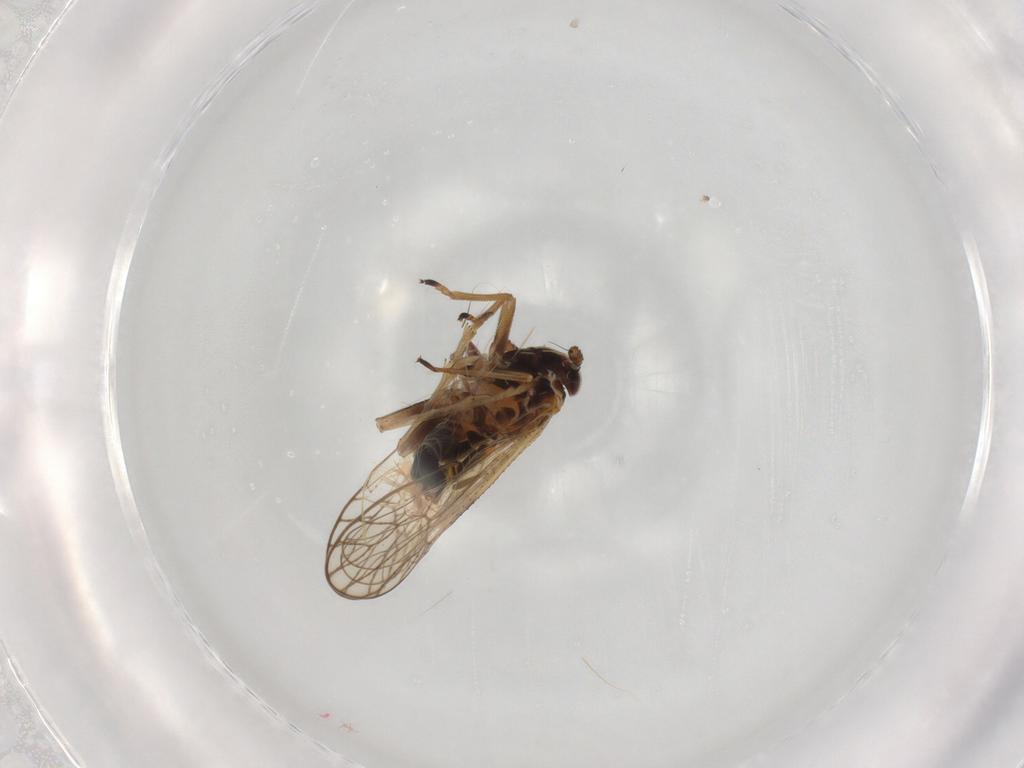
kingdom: Animalia
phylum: Arthropoda
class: Insecta
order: Hemiptera
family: Delphacidae
